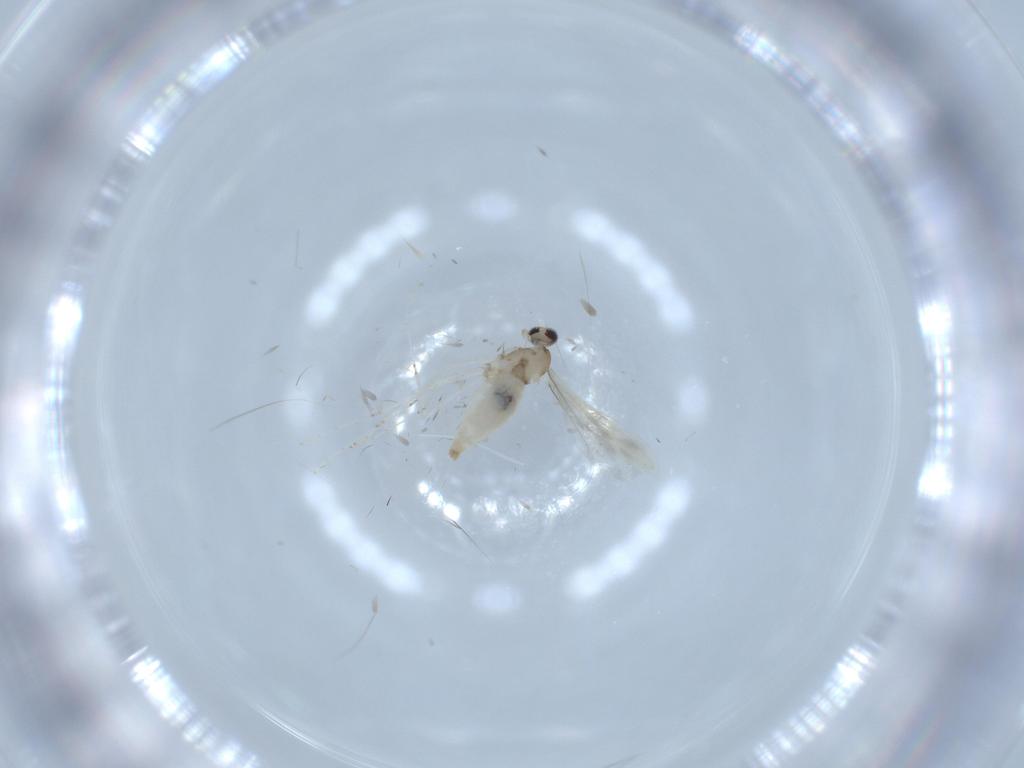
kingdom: Animalia
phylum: Arthropoda
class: Insecta
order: Diptera
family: Cecidomyiidae
